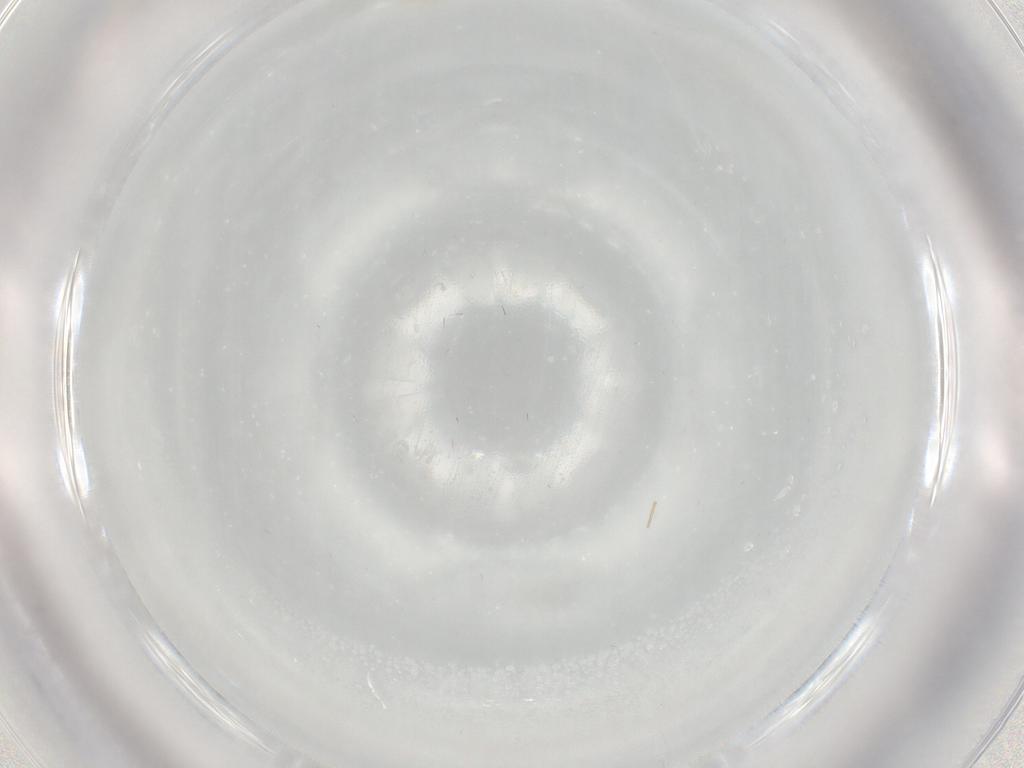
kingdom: Animalia
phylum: Arthropoda
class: Insecta
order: Diptera
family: Chironomidae
